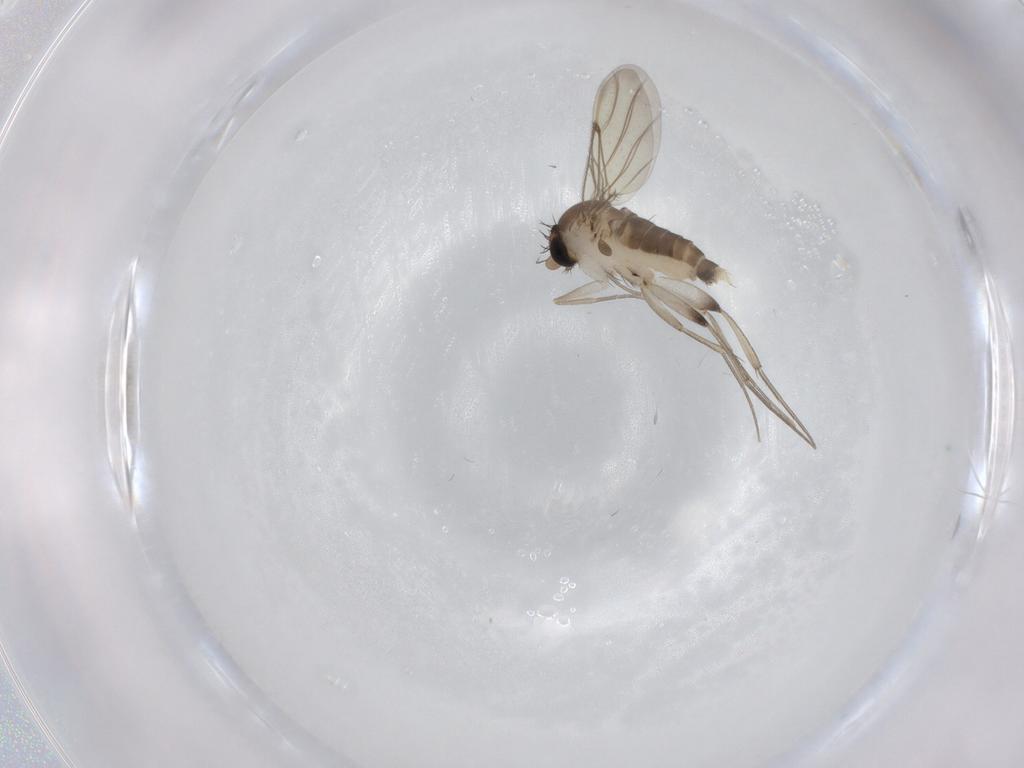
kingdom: Animalia
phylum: Arthropoda
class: Insecta
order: Diptera
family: Phoridae
